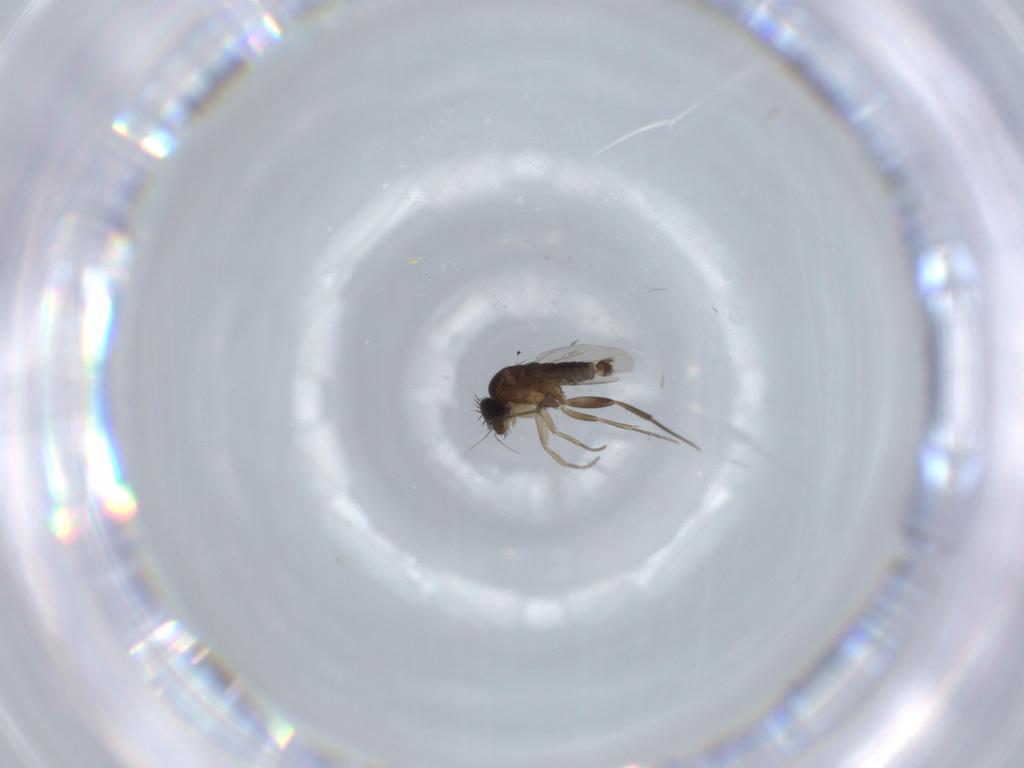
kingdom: Animalia
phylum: Arthropoda
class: Insecta
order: Diptera
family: Phoridae
